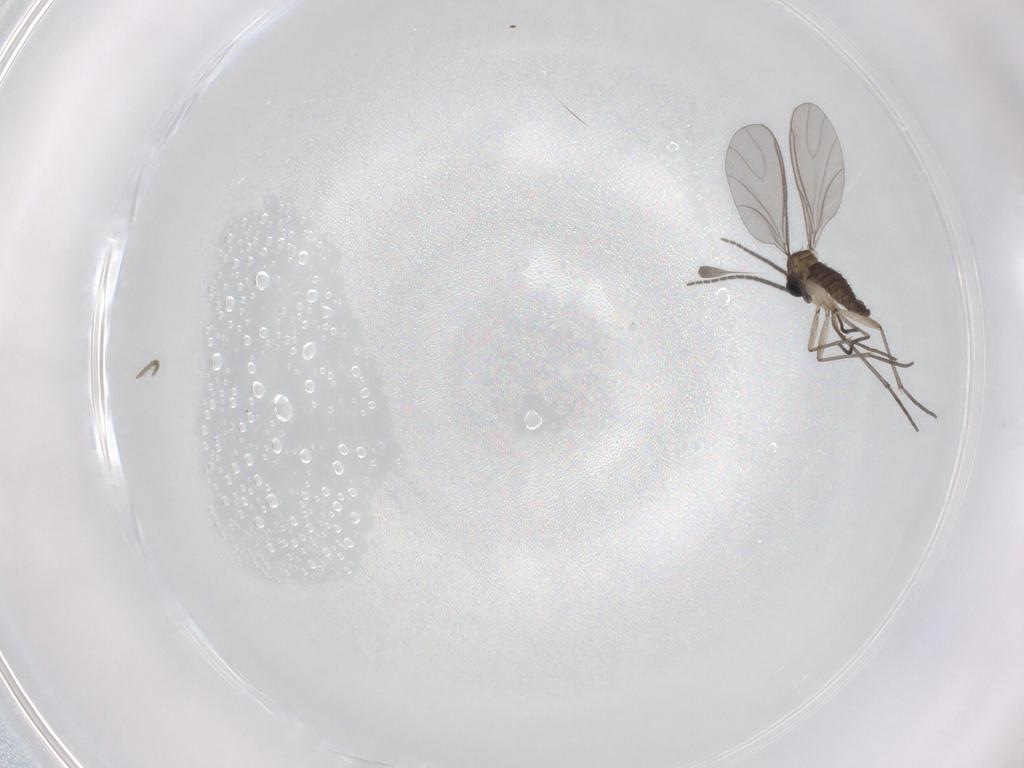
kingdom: Animalia
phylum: Arthropoda
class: Insecta
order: Diptera
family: Sciaridae
